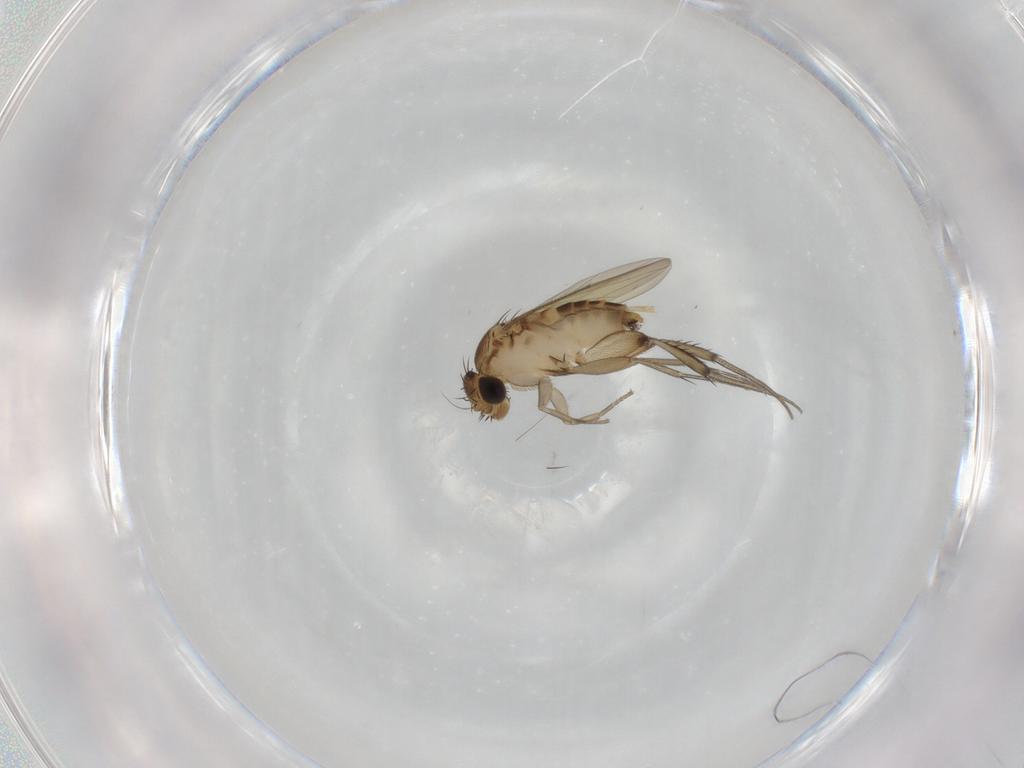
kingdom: Animalia
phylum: Arthropoda
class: Insecta
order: Diptera
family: Phoridae
